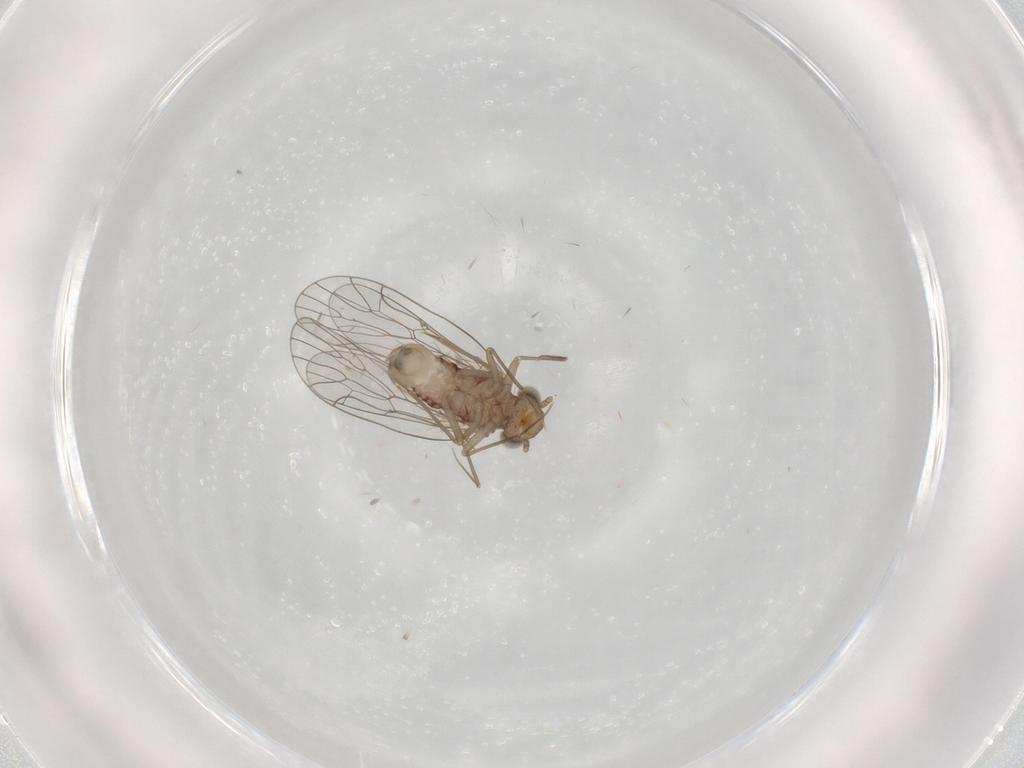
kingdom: Animalia
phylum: Arthropoda
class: Insecta
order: Psocodea
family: Amphientomidae
